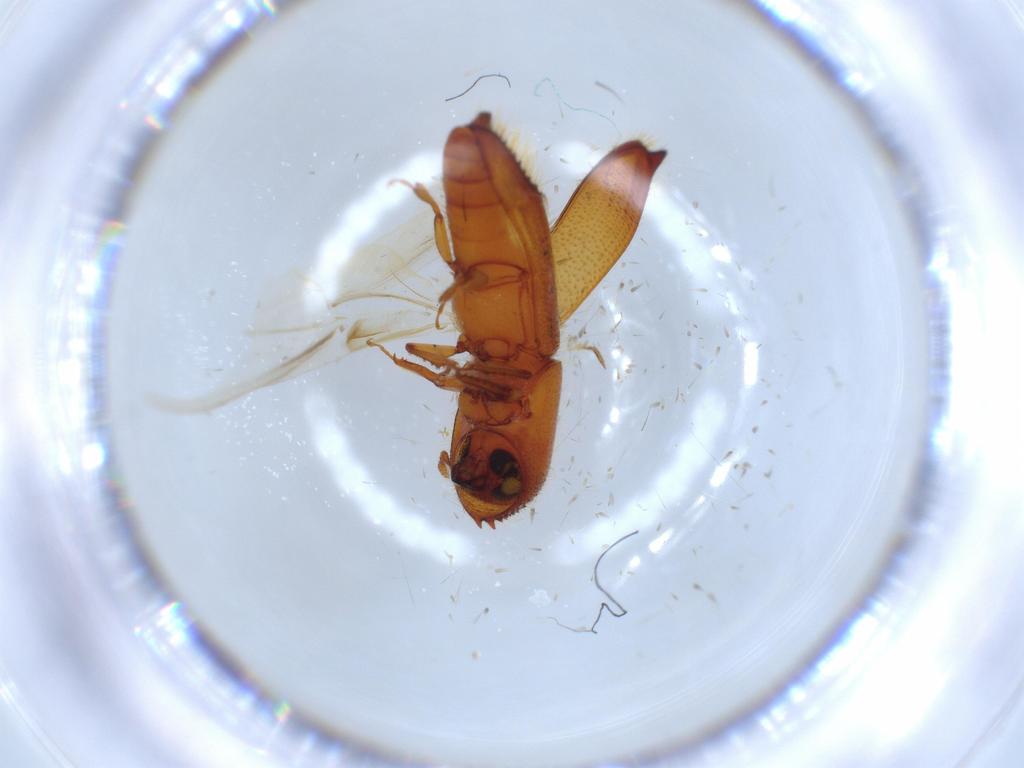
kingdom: Animalia
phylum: Arthropoda
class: Insecta
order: Coleoptera
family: Curculionidae
